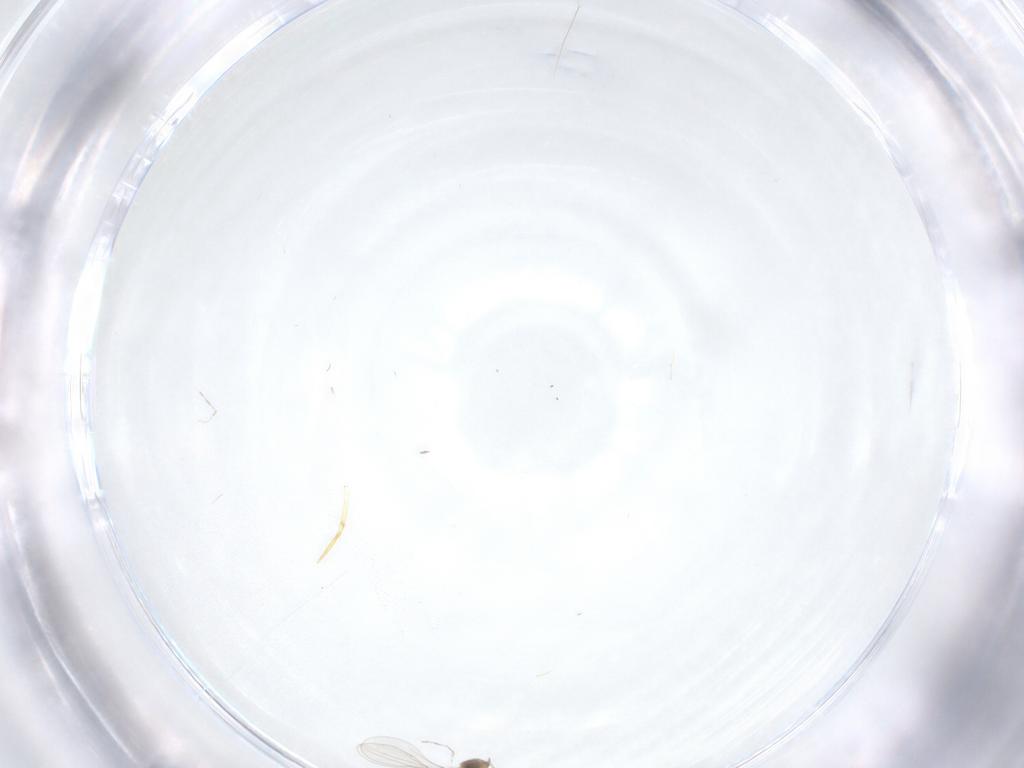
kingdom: Animalia
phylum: Arthropoda
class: Insecta
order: Diptera
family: Cecidomyiidae
